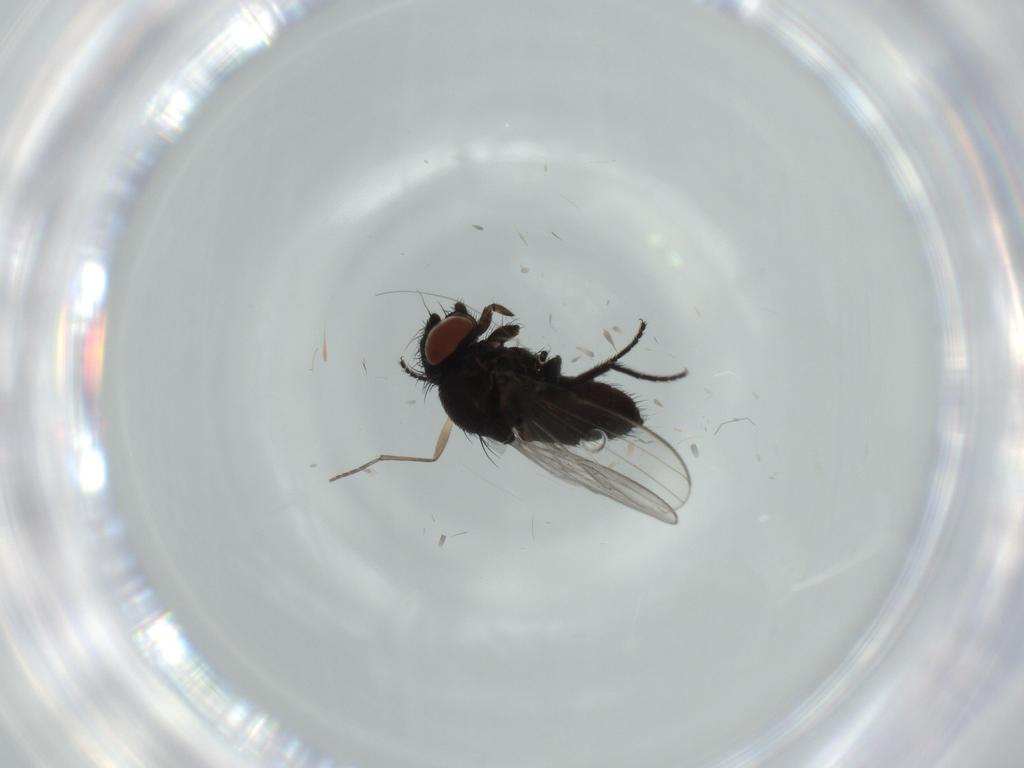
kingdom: Animalia
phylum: Arthropoda
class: Insecta
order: Diptera
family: Milichiidae
